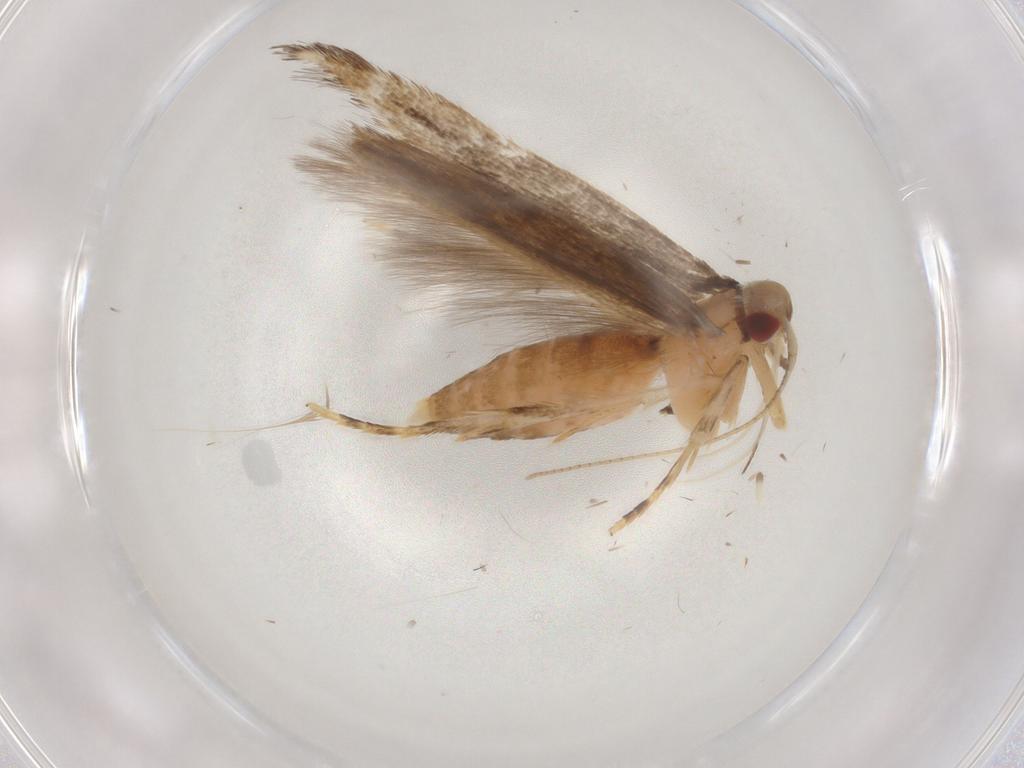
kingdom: Animalia
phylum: Arthropoda
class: Insecta
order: Lepidoptera
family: Cosmopterigidae
